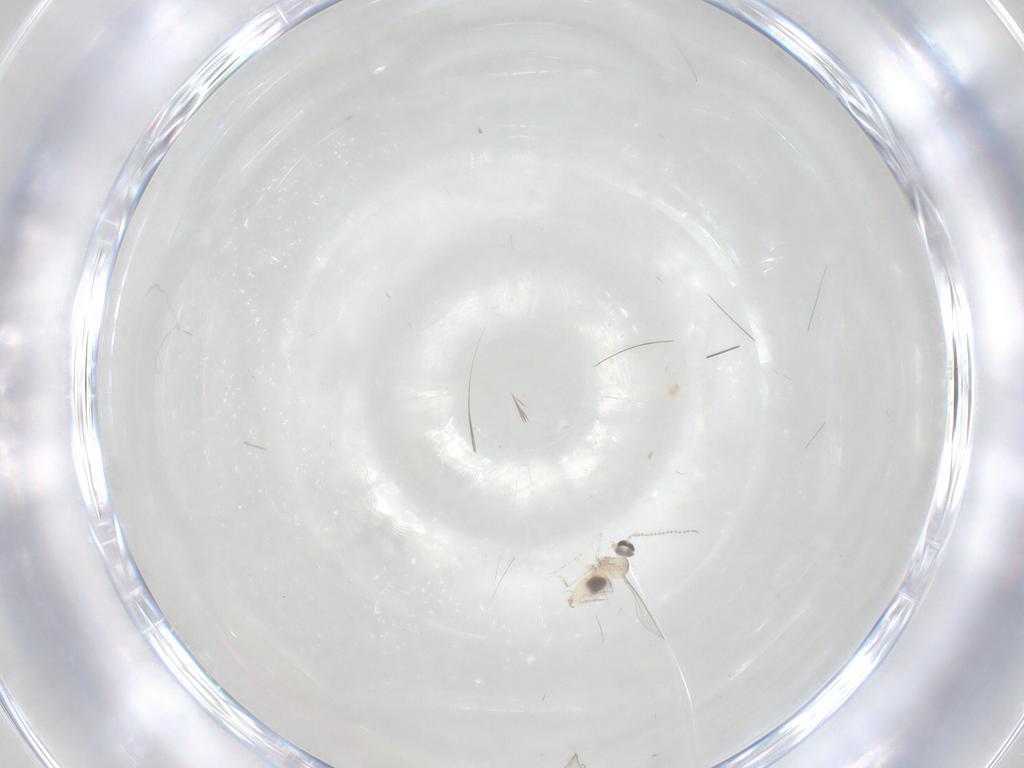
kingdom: Animalia
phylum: Arthropoda
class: Insecta
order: Diptera
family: Cecidomyiidae
